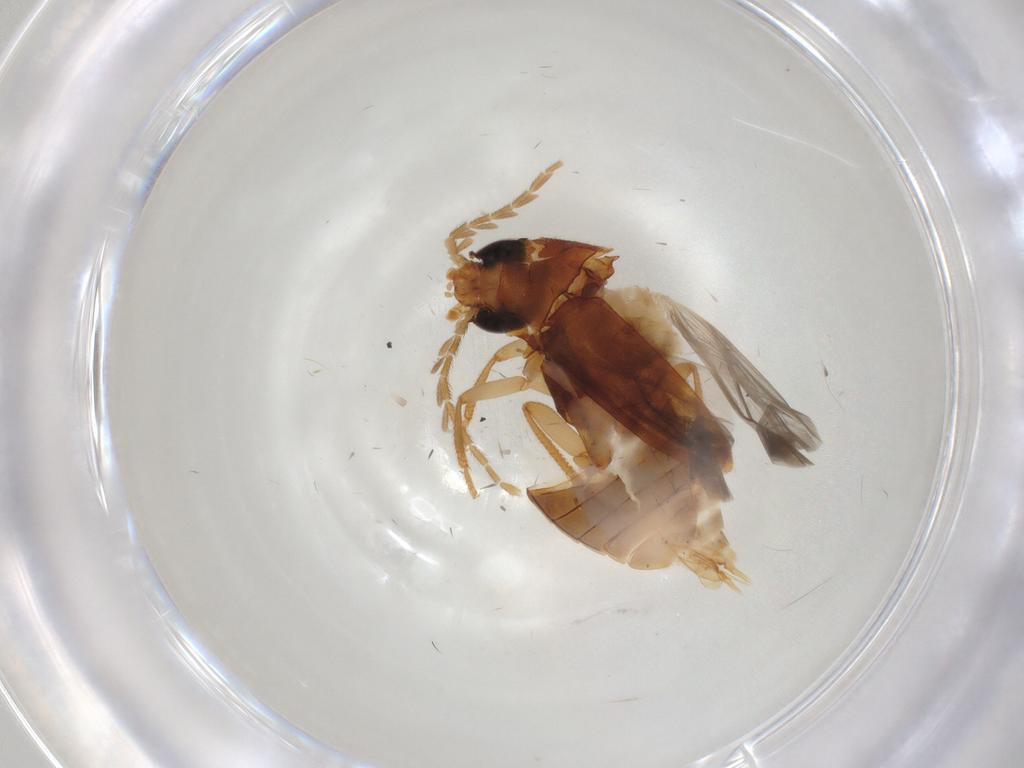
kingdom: Animalia
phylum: Arthropoda
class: Insecta
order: Coleoptera
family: Ptilodactylidae
